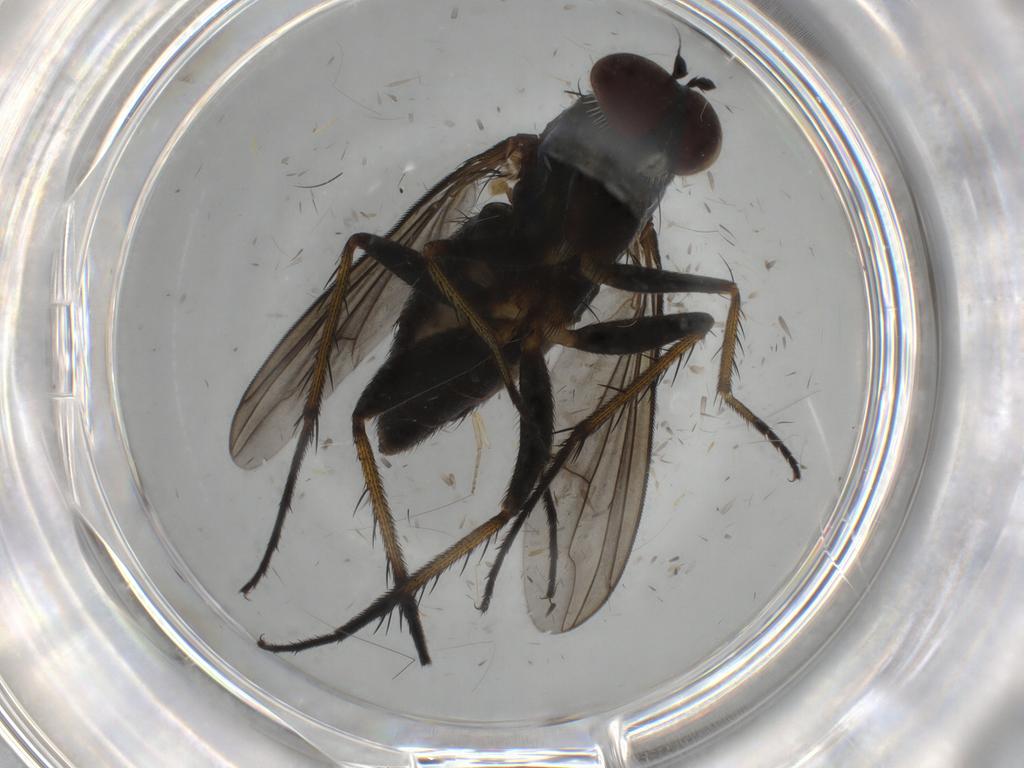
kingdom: Animalia
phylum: Arthropoda
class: Insecta
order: Diptera
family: Dolichopodidae
